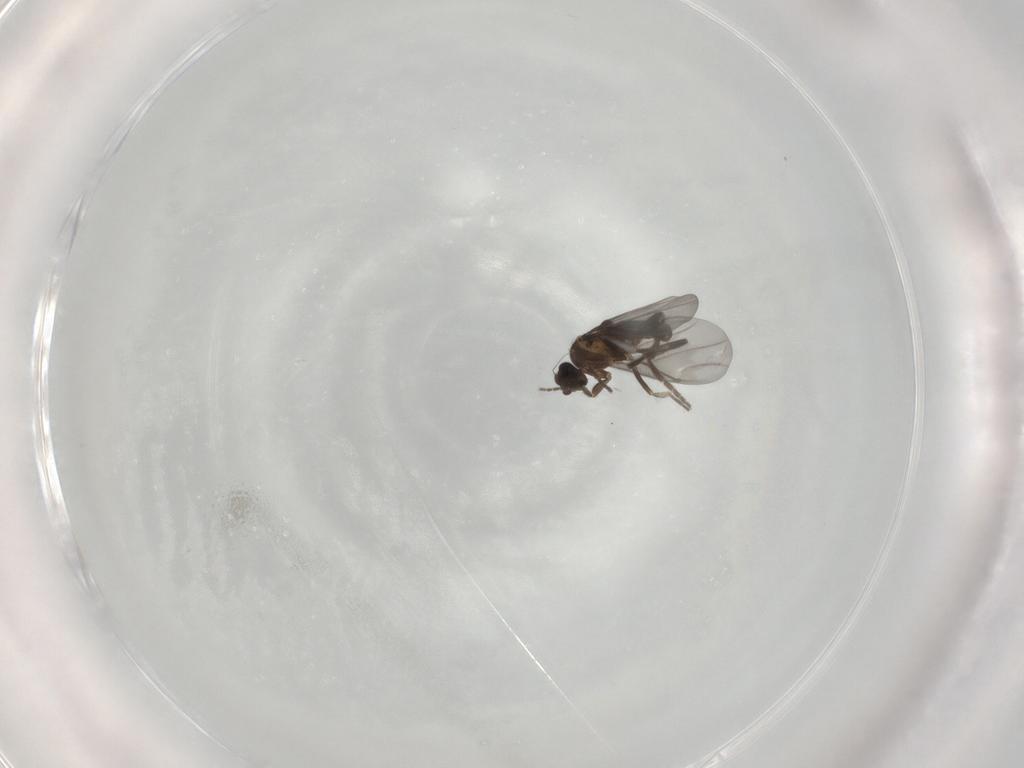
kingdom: Animalia
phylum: Arthropoda
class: Insecta
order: Diptera
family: Phoridae
